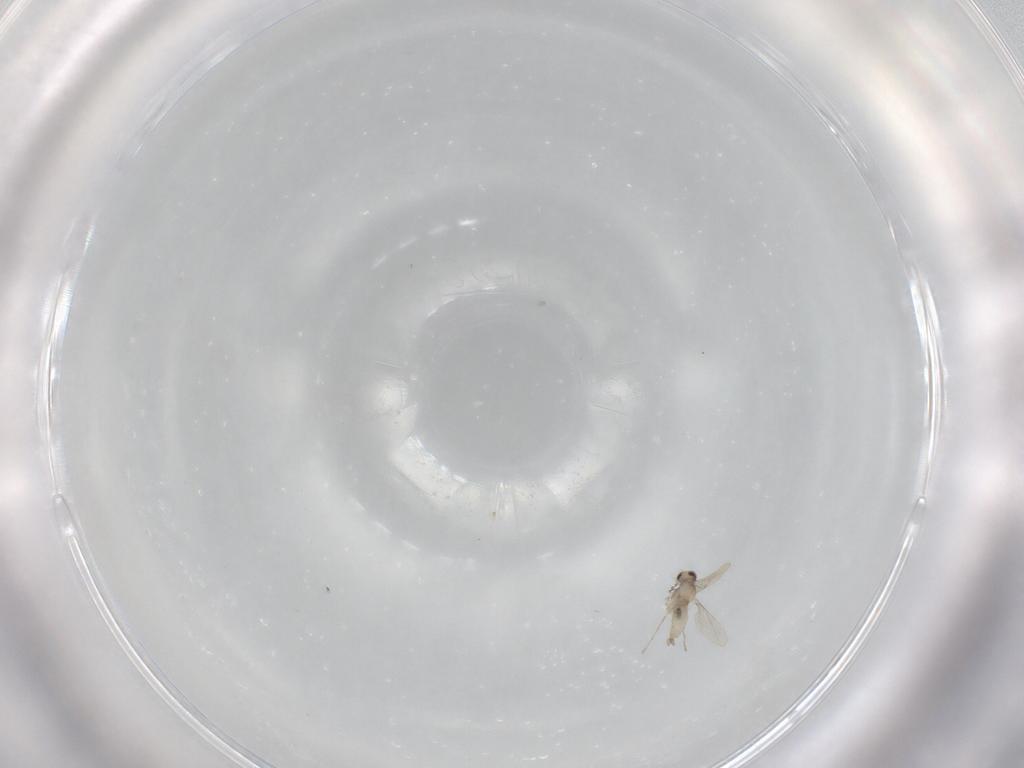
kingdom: Animalia
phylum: Arthropoda
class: Insecta
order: Diptera
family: Cecidomyiidae
